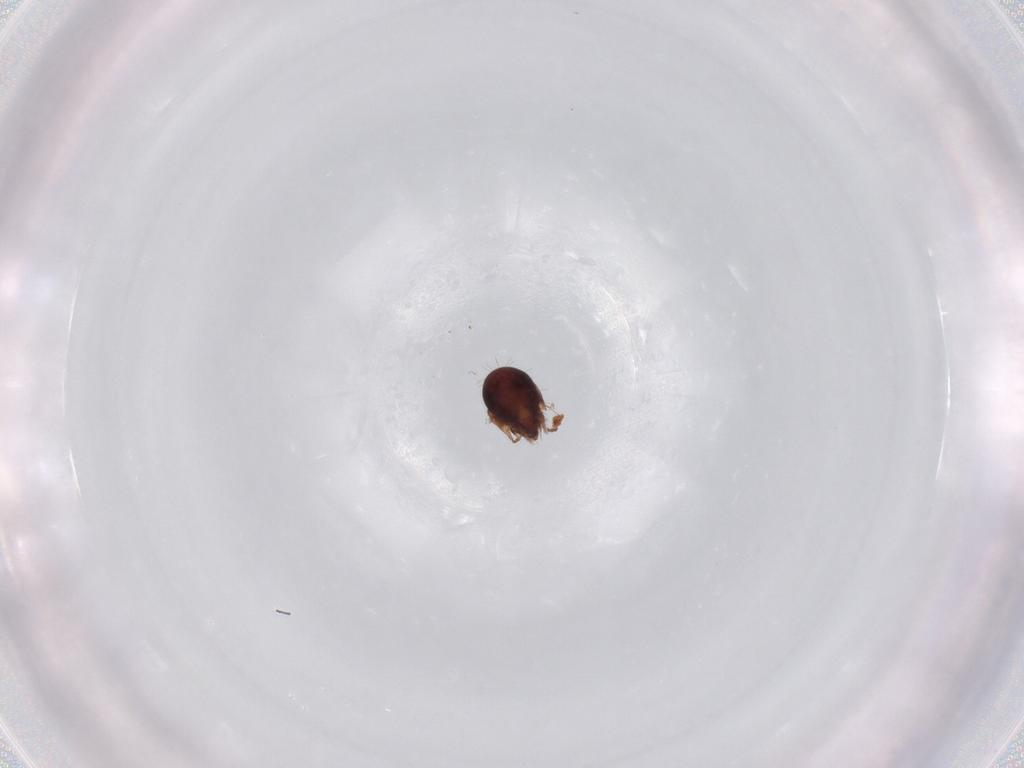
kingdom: Animalia
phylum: Arthropoda
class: Arachnida
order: Sarcoptiformes
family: Humerobatidae
